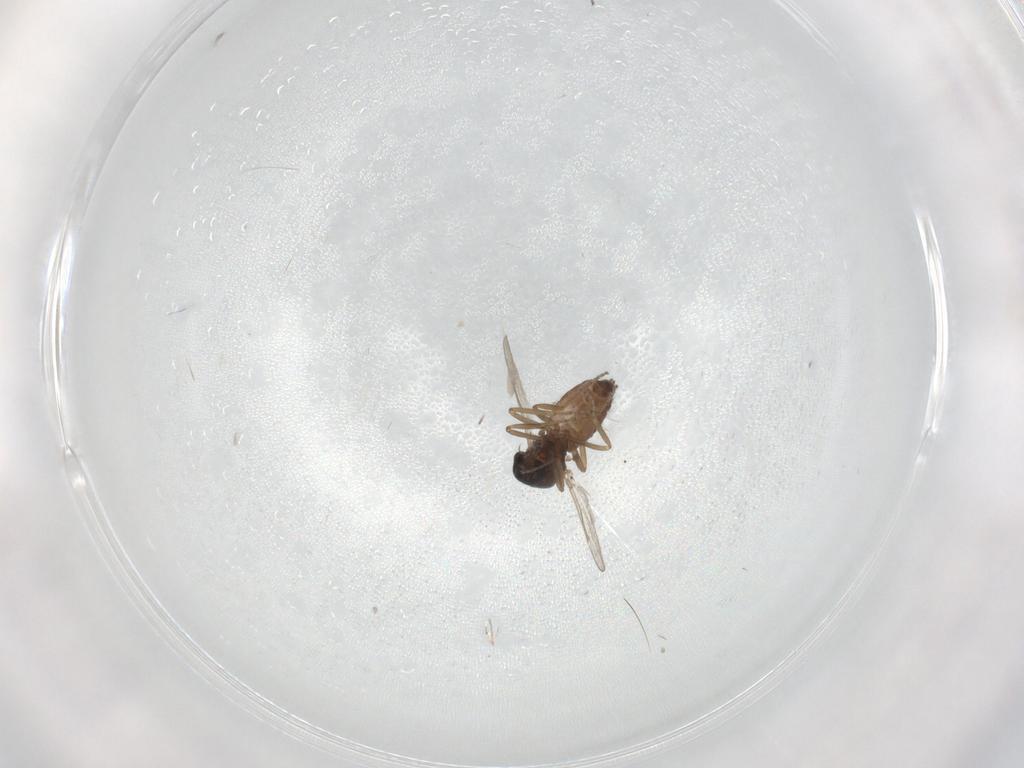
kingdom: Animalia
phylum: Arthropoda
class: Insecta
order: Diptera
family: Ceratopogonidae
